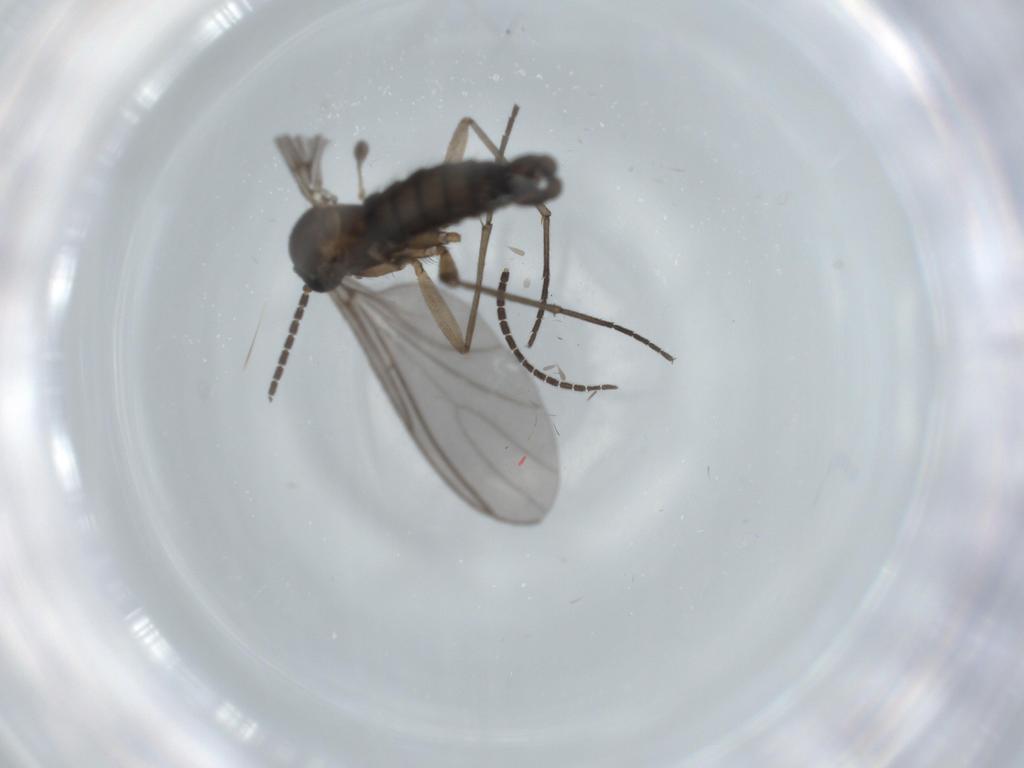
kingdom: Animalia
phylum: Arthropoda
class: Insecta
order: Diptera
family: Sciaridae
